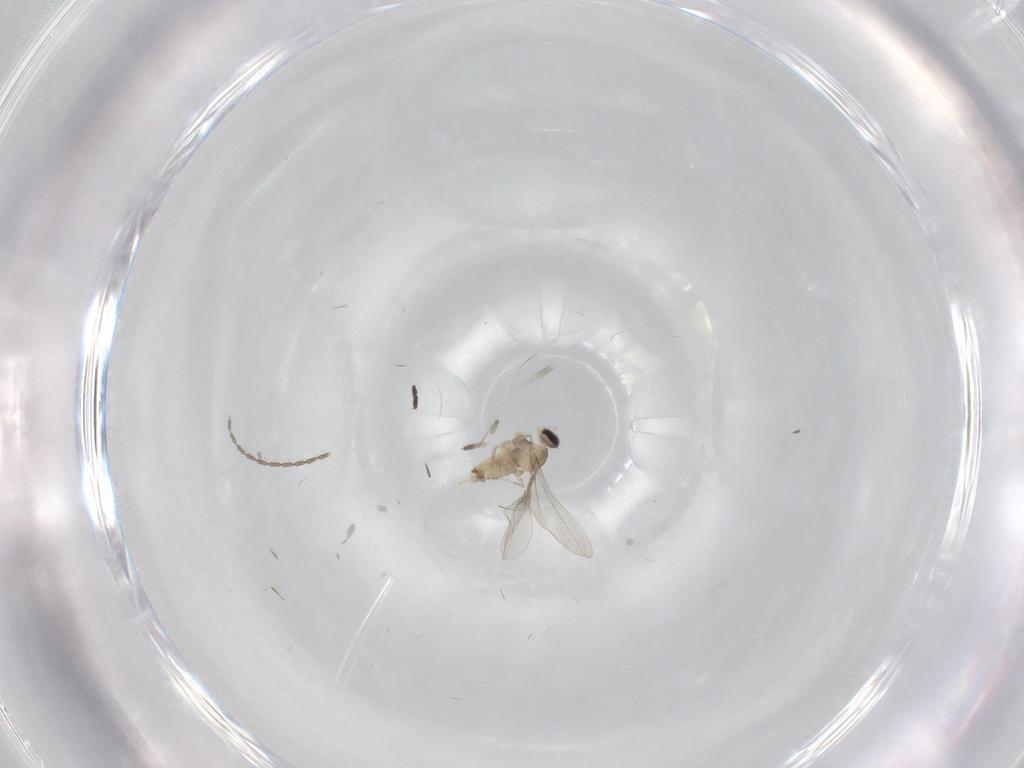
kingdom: Animalia
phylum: Arthropoda
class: Insecta
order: Diptera
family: Cecidomyiidae
